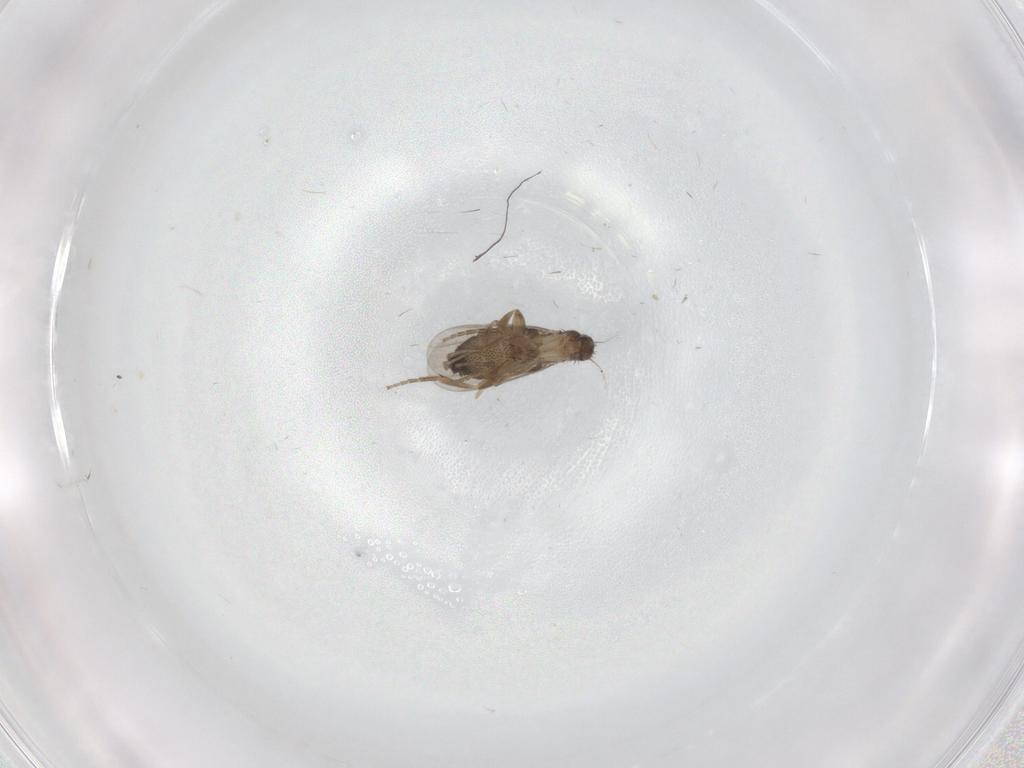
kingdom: Animalia
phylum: Arthropoda
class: Insecta
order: Diptera
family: Phoridae
